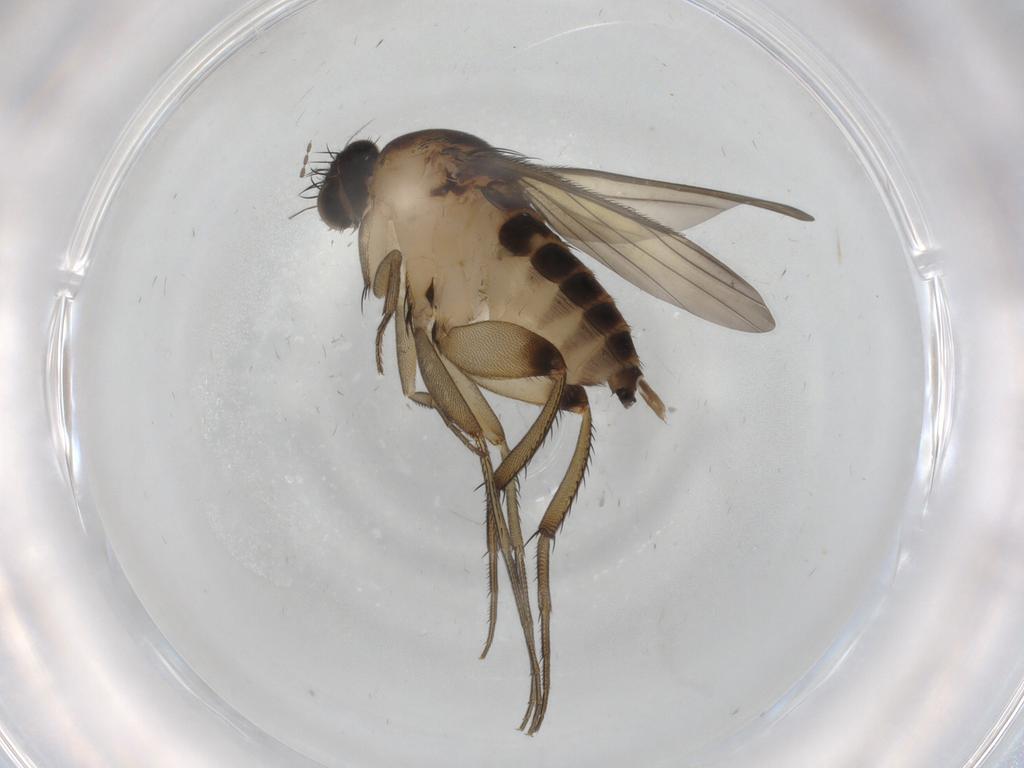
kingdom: Animalia
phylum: Arthropoda
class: Insecta
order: Diptera
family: Phoridae
